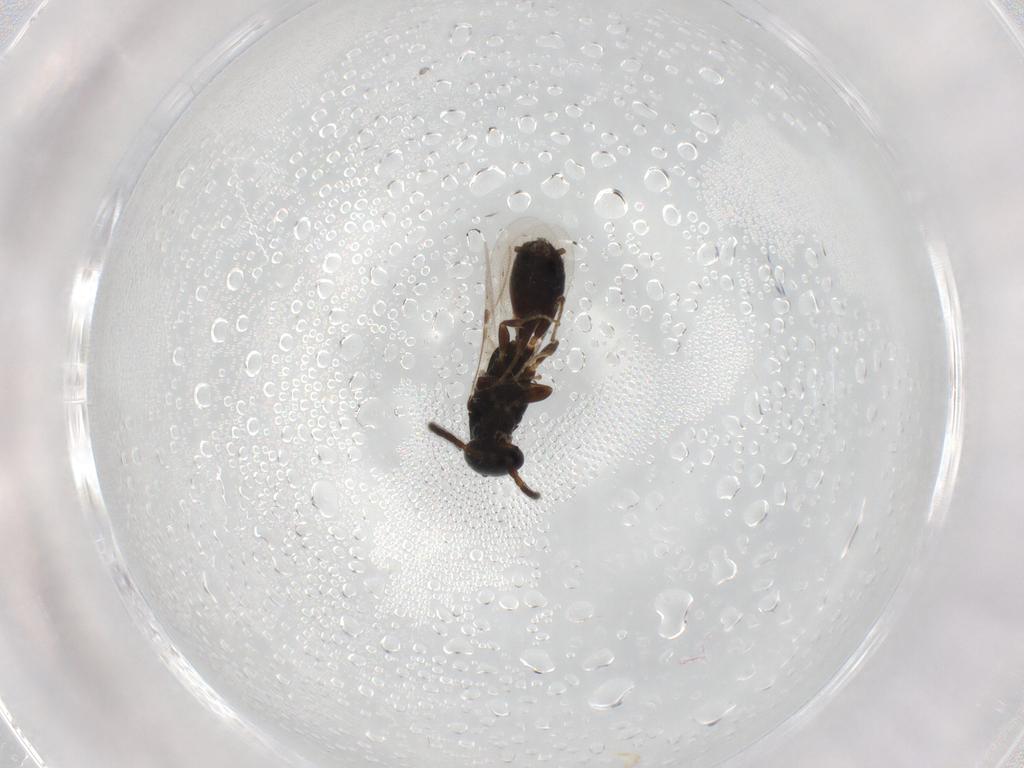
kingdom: Animalia
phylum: Arthropoda
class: Insecta
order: Hymenoptera
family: Bethylidae
